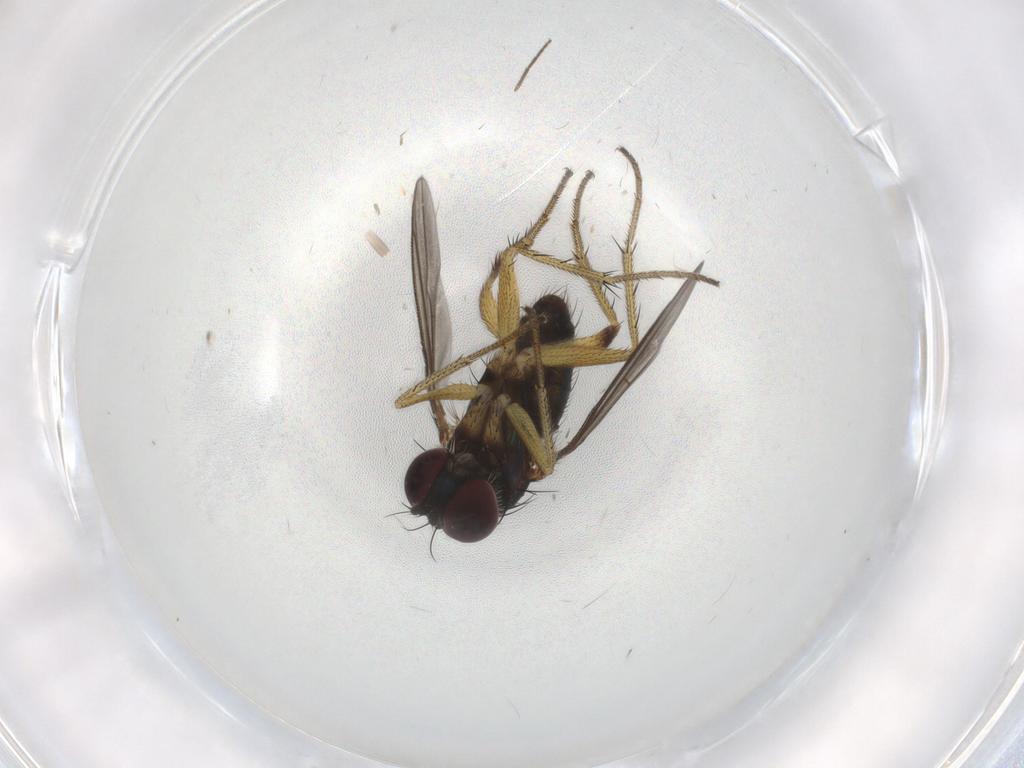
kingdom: Animalia
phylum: Arthropoda
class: Insecta
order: Diptera
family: Dolichopodidae
